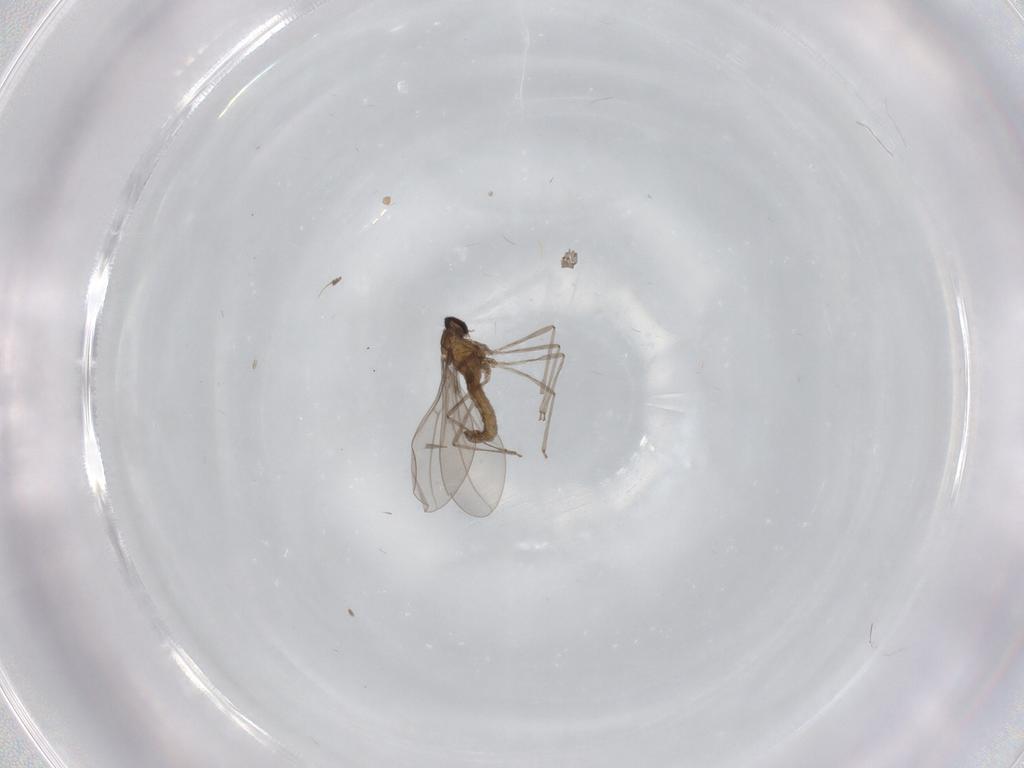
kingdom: Animalia
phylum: Arthropoda
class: Insecta
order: Diptera
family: Cecidomyiidae
